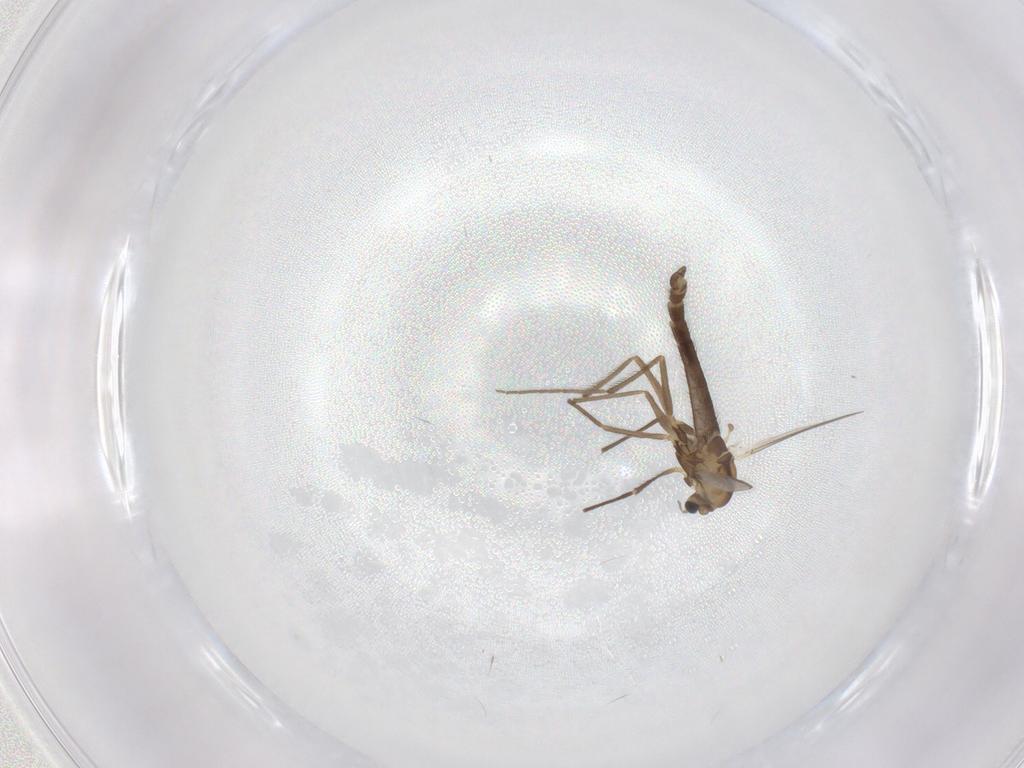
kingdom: Animalia
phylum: Arthropoda
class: Insecta
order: Diptera
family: Chironomidae
